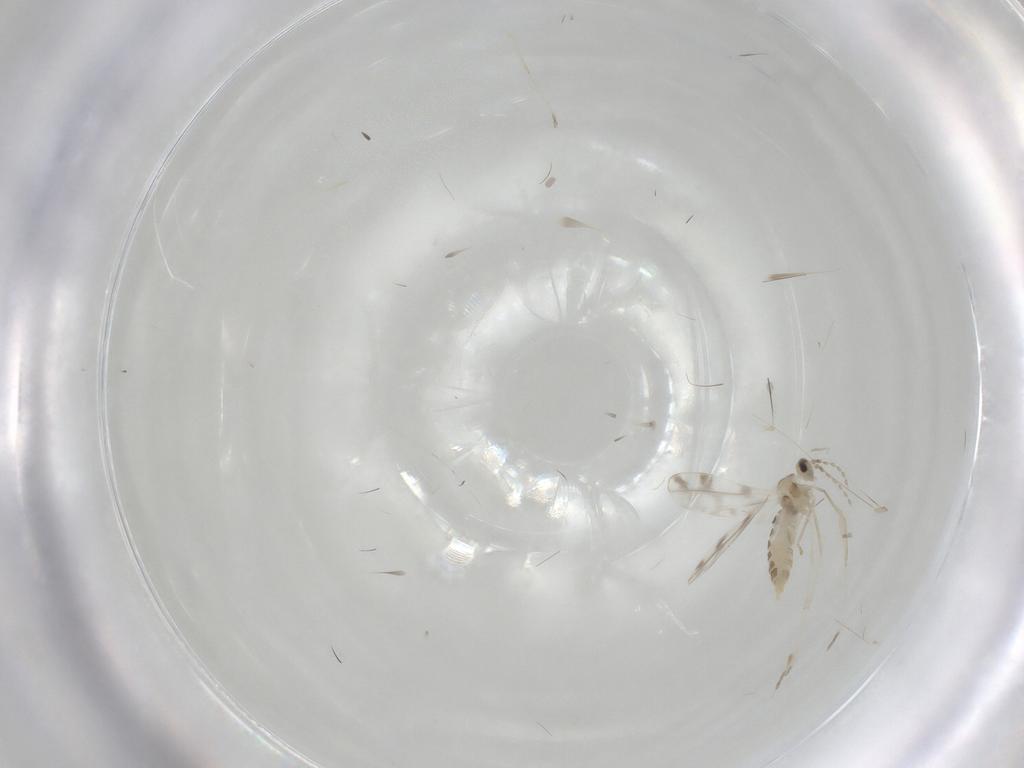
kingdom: Animalia
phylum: Arthropoda
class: Insecta
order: Diptera
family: Cecidomyiidae
